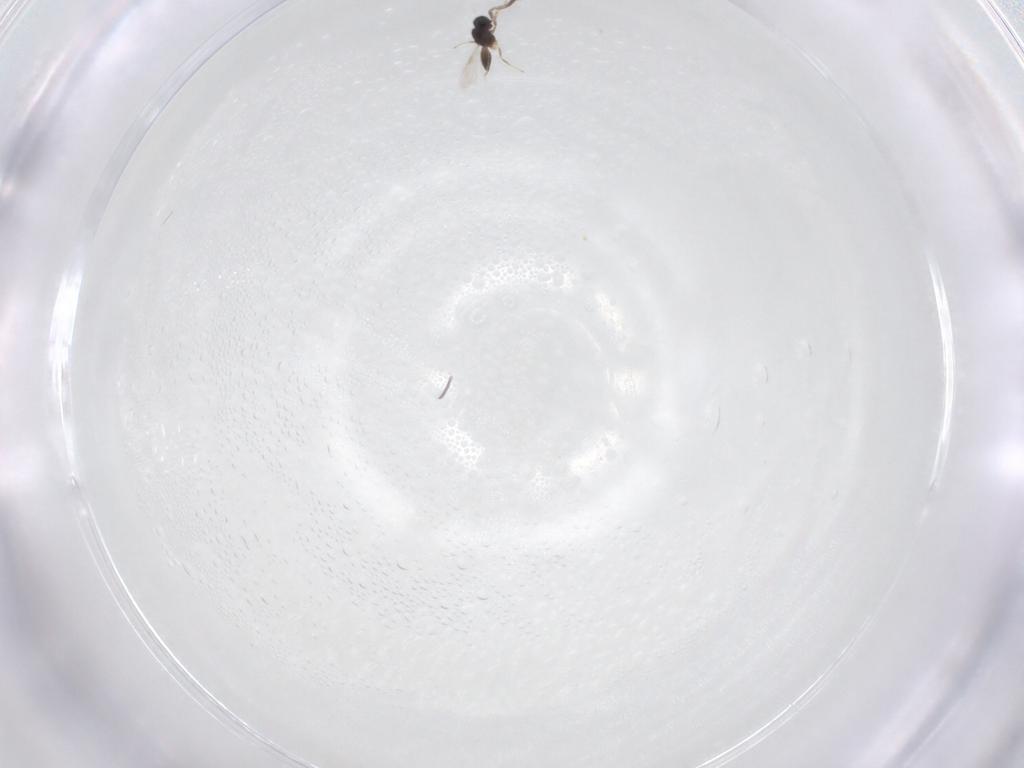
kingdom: Animalia
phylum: Arthropoda
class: Insecta
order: Hymenoptera
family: Scelionidae
